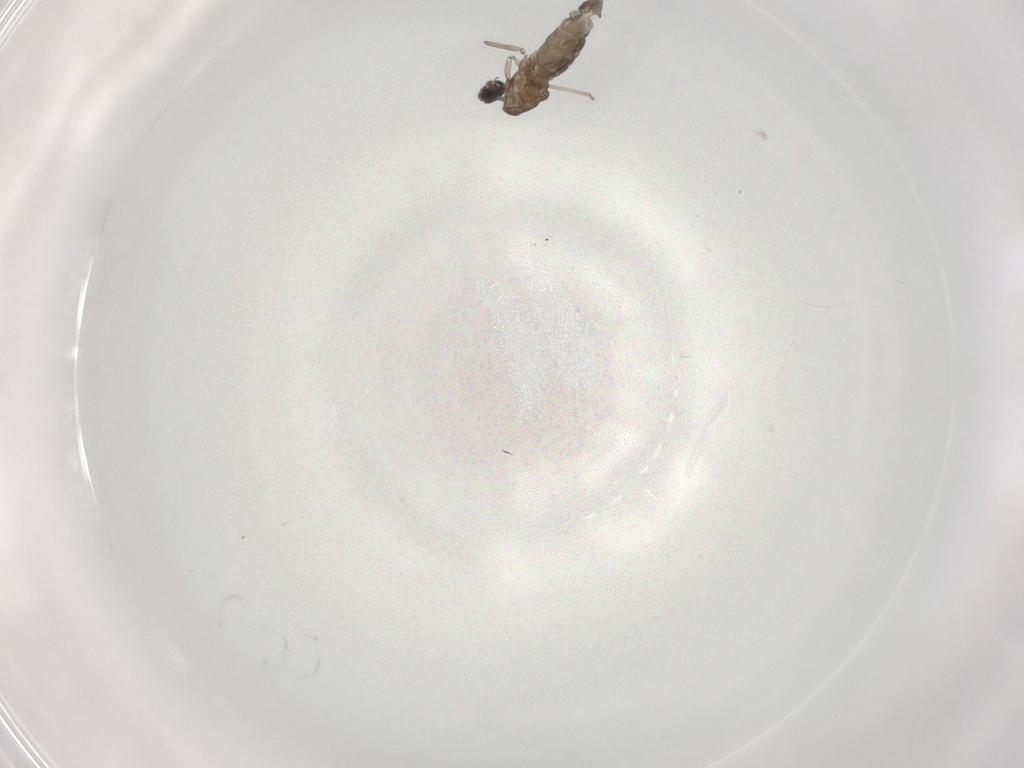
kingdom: Animalia
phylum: Arthropoda
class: Insecta
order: Diptera
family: Cecidomyiidae
